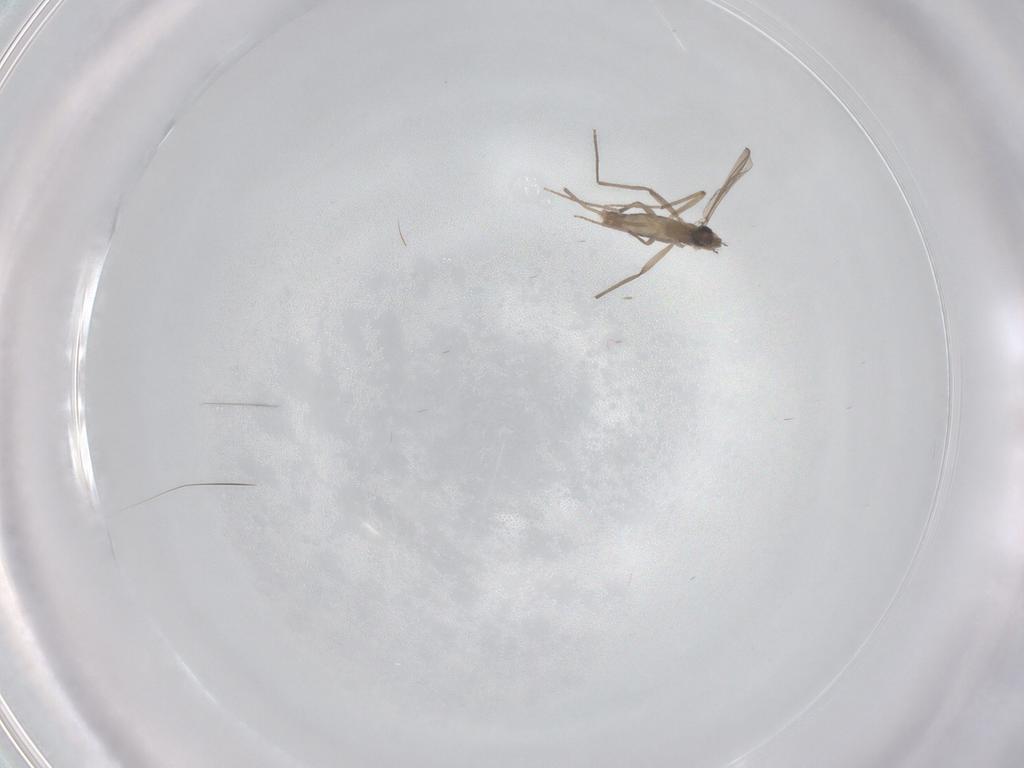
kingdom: Animalia
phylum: Arthropoda
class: Insecta
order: Diptera
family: Chironomidae
